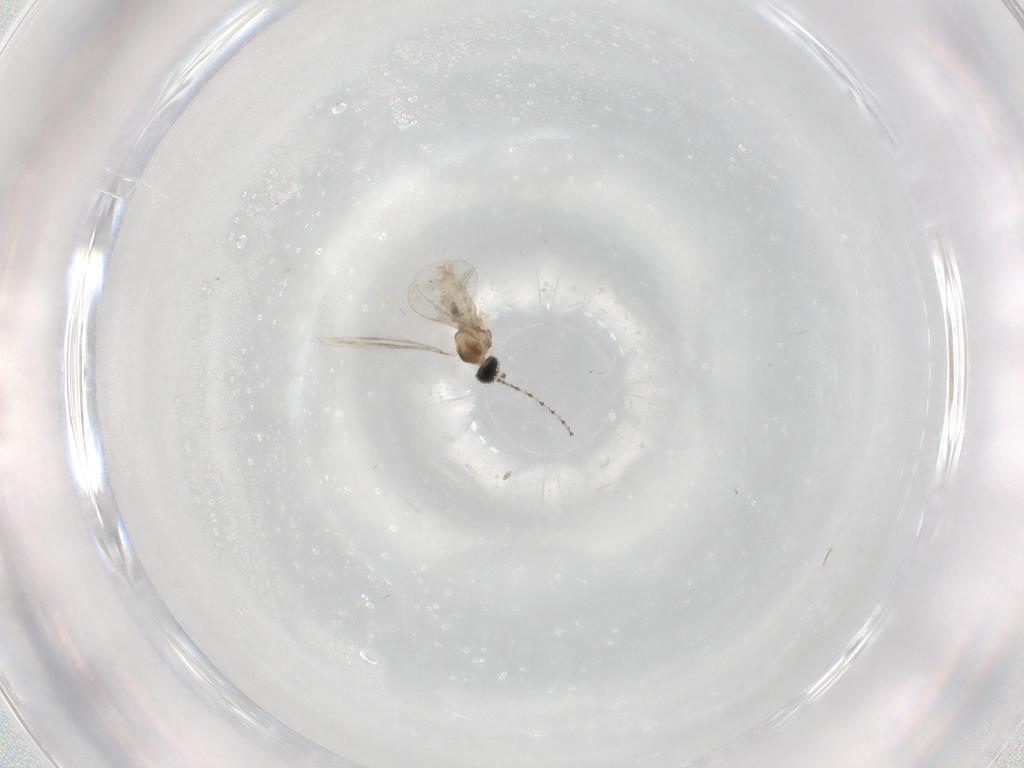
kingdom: Animalia
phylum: Arthropoda
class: Insecta
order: Diptera
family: Cecidomyiidae
